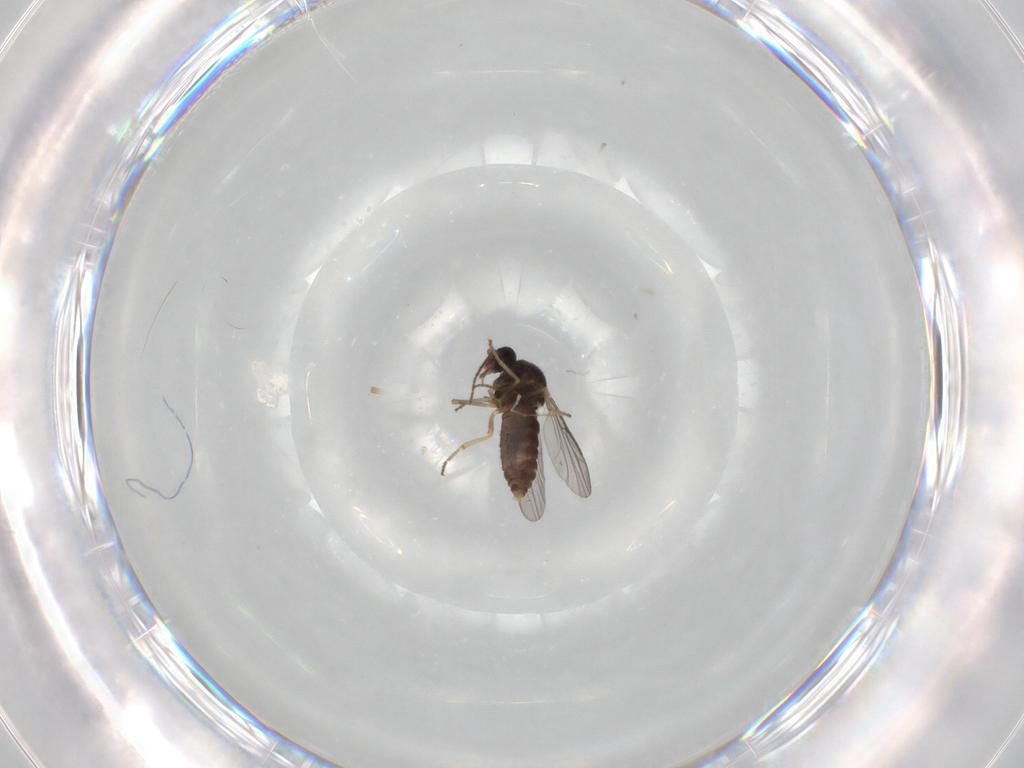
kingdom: Animalia
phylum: Arthropoda
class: Insecta
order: Diptera
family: Ceratopogonidae
